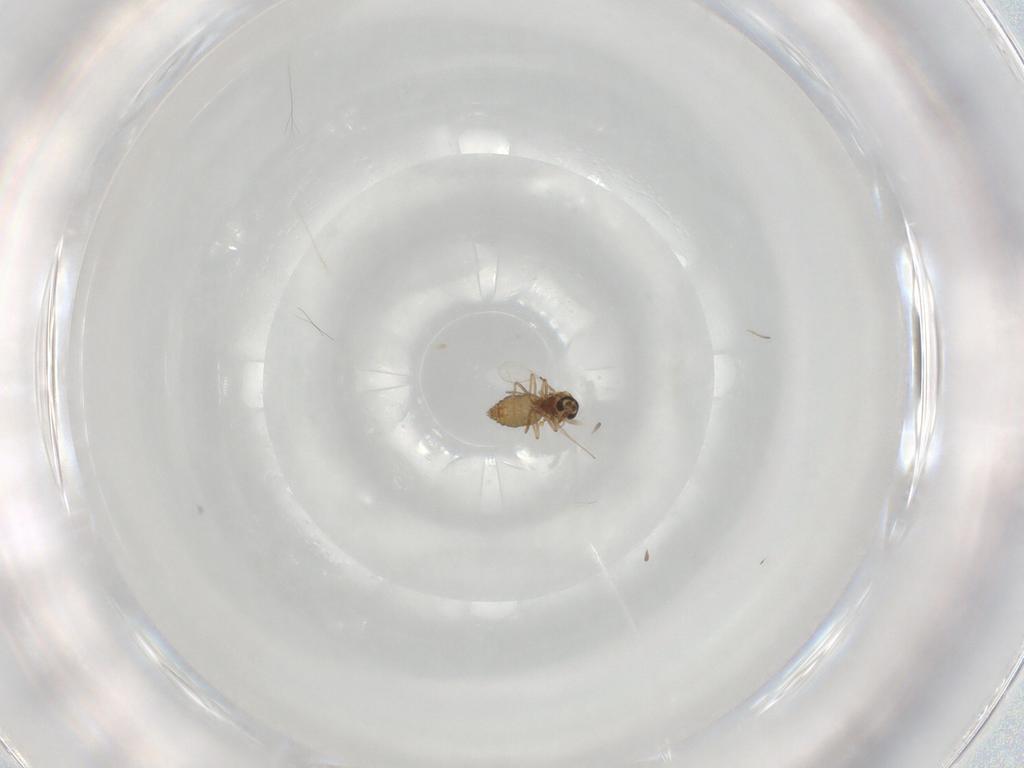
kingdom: Animalia
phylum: Arthropoda
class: Insecta
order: Diptera
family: Ceratopogonidae
